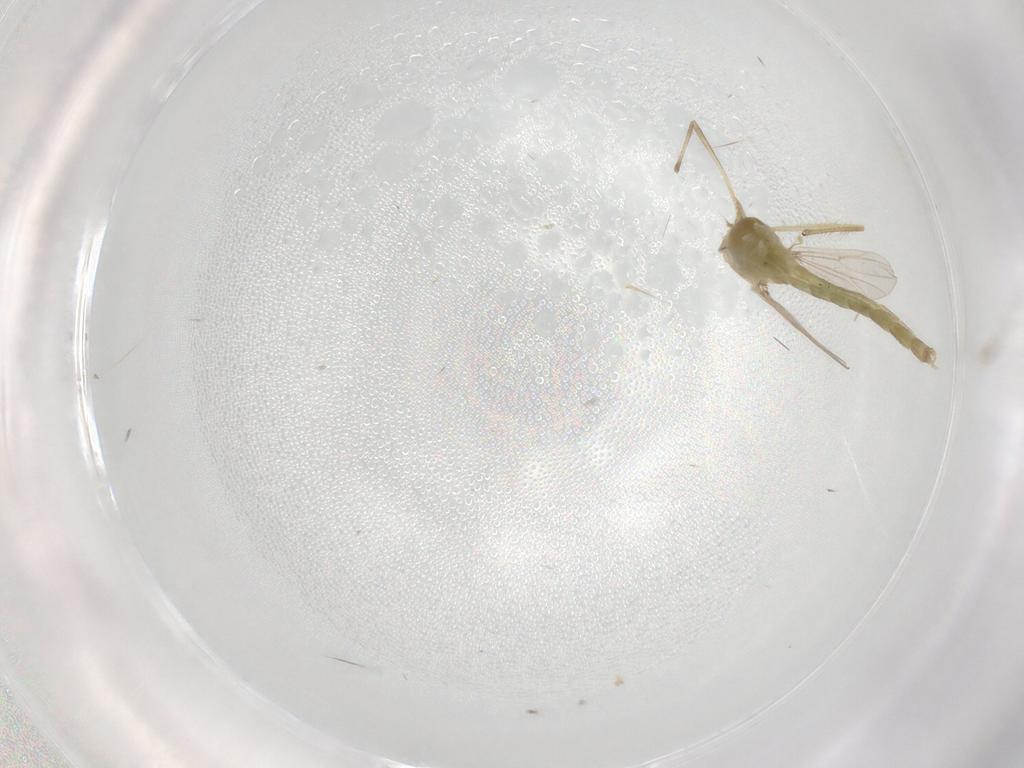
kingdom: Animalia
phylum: Arthropoda
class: Insecta
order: Diptera
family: Chironomidae
